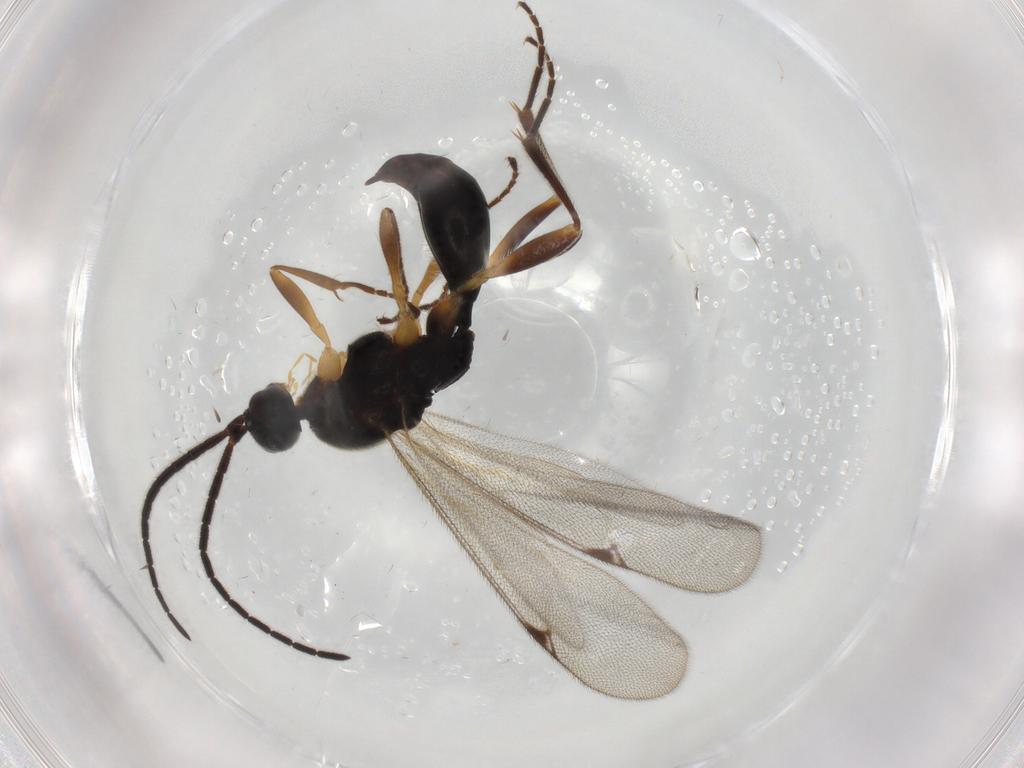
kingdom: Animalia
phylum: Arthropoda
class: Insecta
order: Hymenoptera
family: Proctotrupidae
